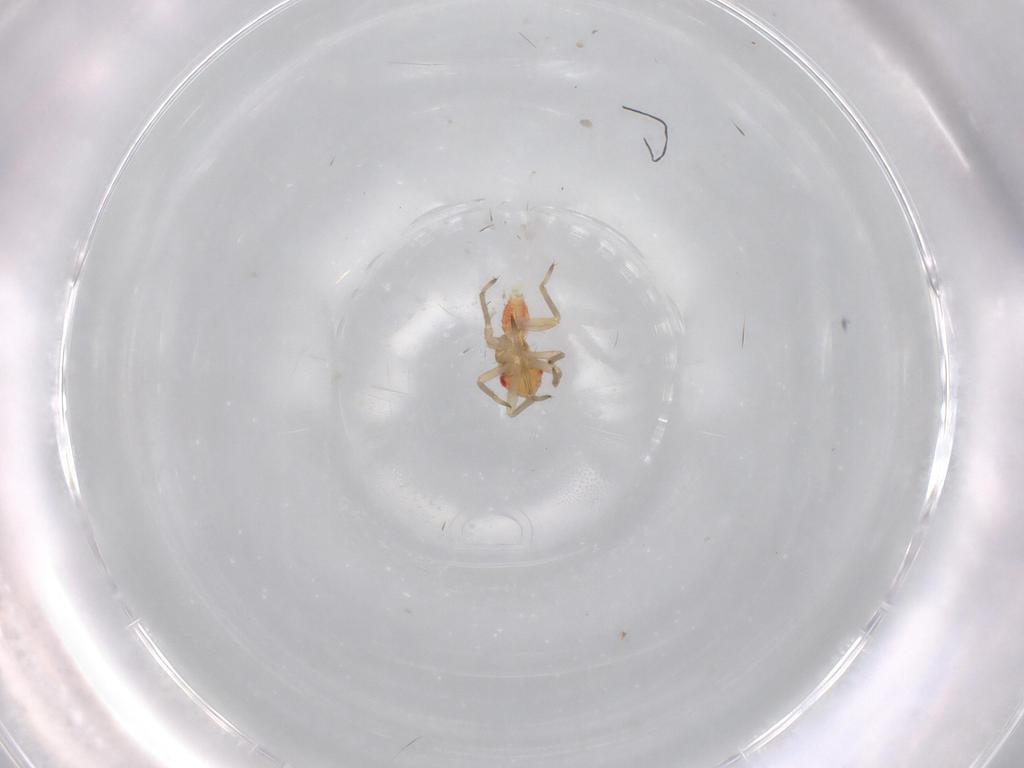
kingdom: Animalia
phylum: Arthropoda
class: Insecta
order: Hemiptera
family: Miridae
